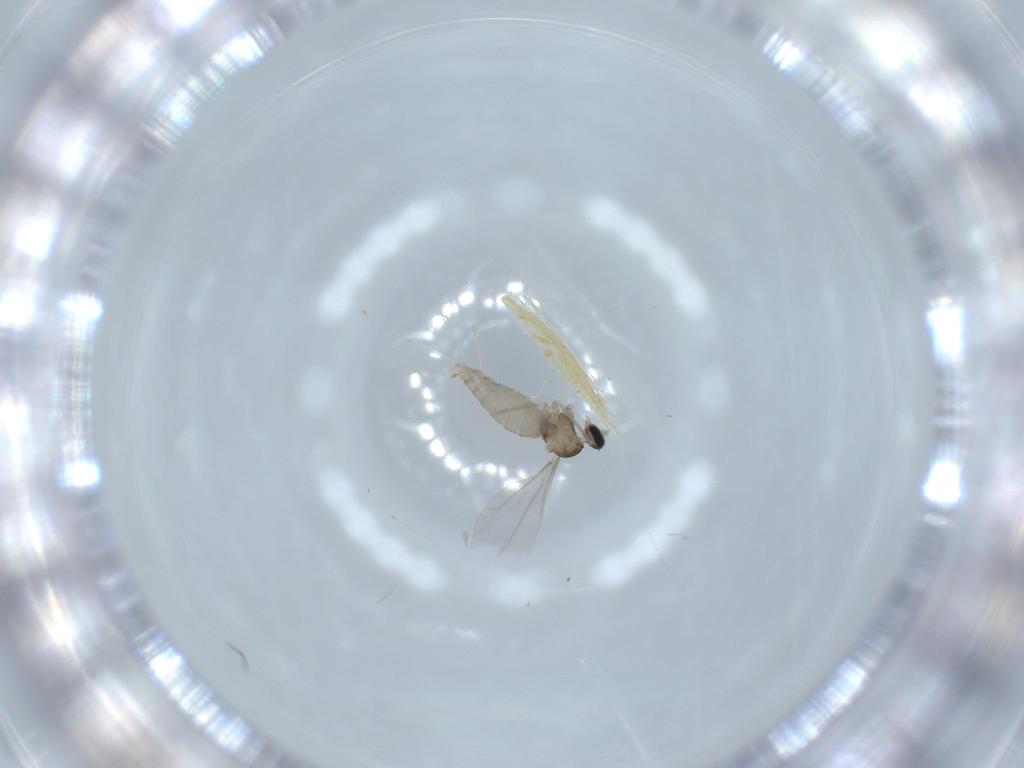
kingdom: Animalia
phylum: Arthropoda
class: Insecta
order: Diptera
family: Cecidomyiidae
